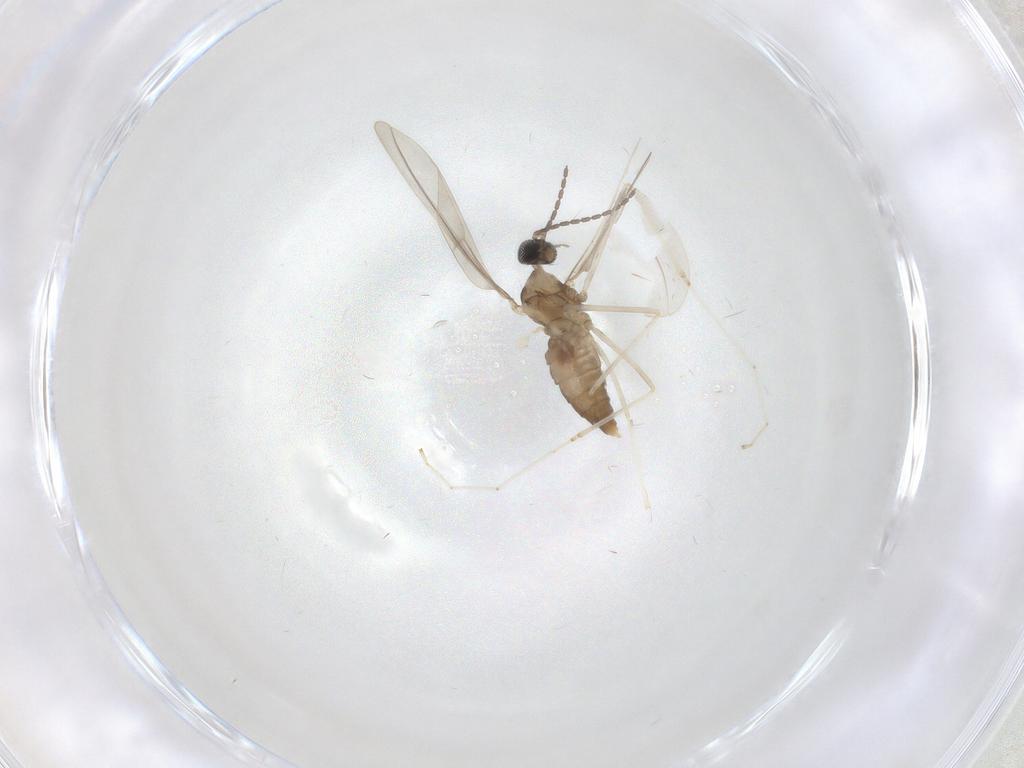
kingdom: Animalia
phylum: Arthropoda
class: Insecta
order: Diptera
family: Cecidomyiidae
